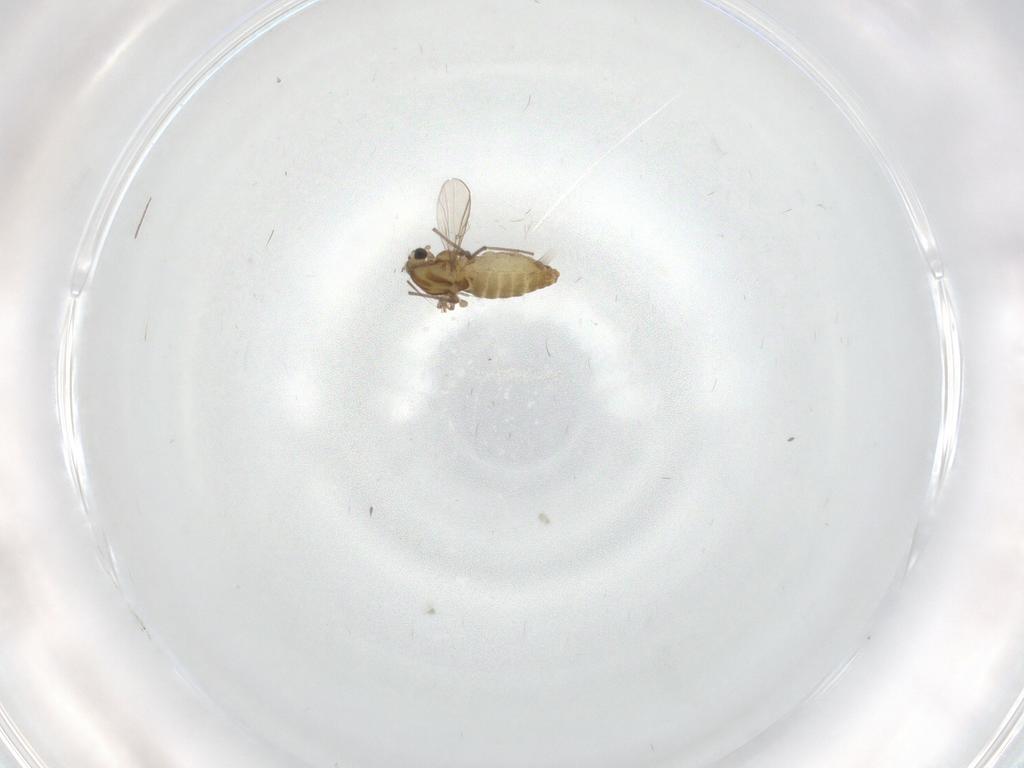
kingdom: Animalia
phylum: Arthropoda
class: Insecta
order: Diptera
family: Chironomidae
